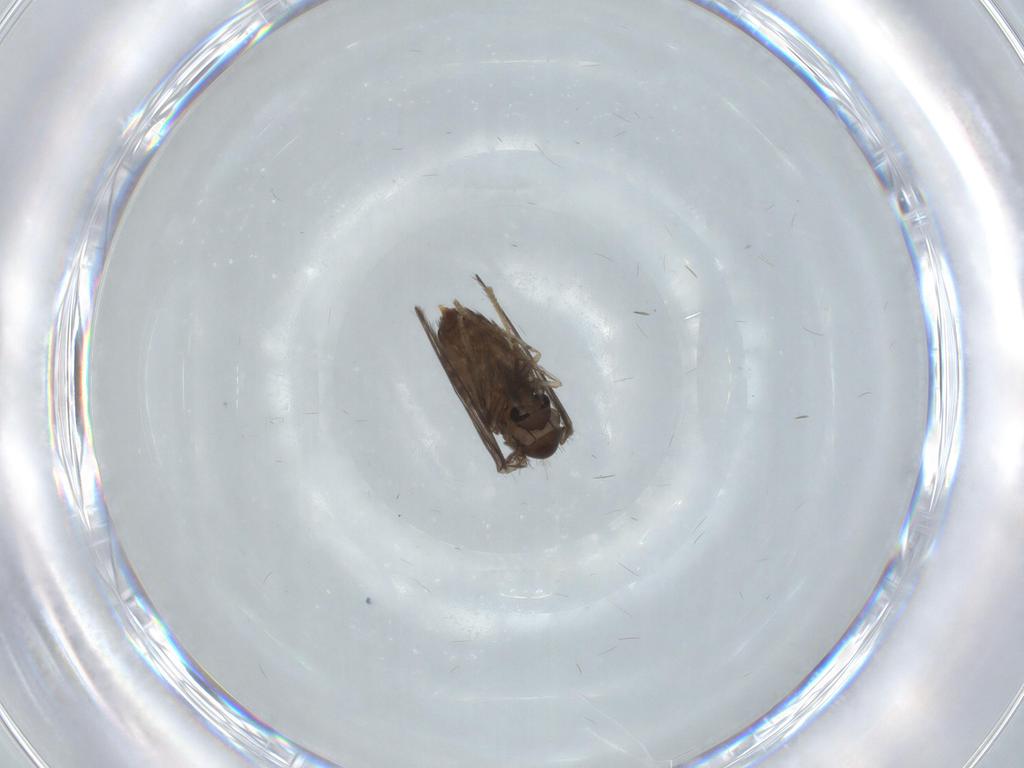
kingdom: Animalia
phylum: Arthropoda
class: Insecta
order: Diptera
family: Psychodidae
